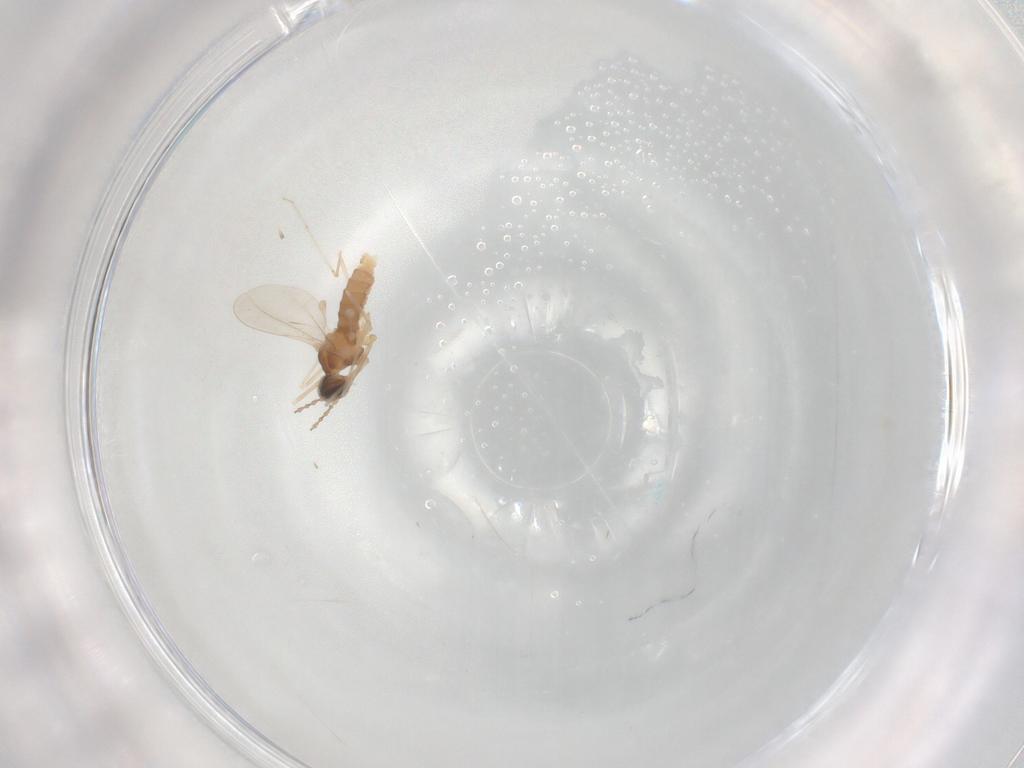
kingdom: Animalia
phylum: Arthropoda
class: Insecta
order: Diptera
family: Cecidomyiidae
